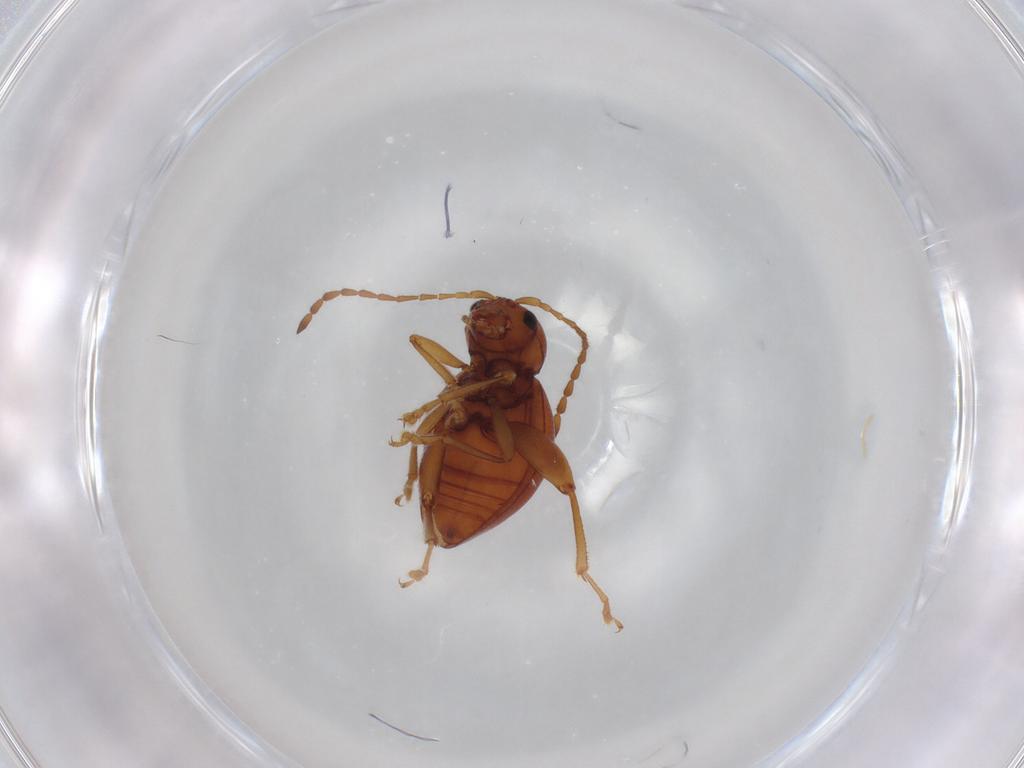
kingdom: Animalia
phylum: Arthropoda
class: Insecta
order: Coleoptera
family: Chrysomelidae
